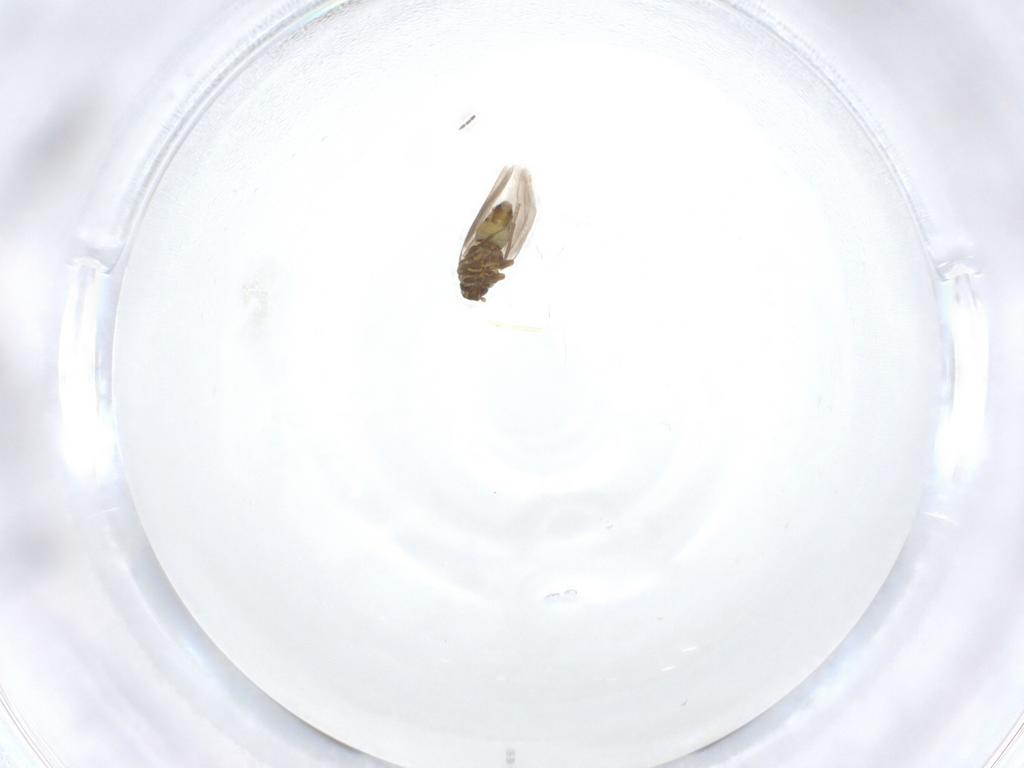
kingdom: Animalia
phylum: Arthropoda
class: Insecta
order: Hemiptera
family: Aleyrodidae
